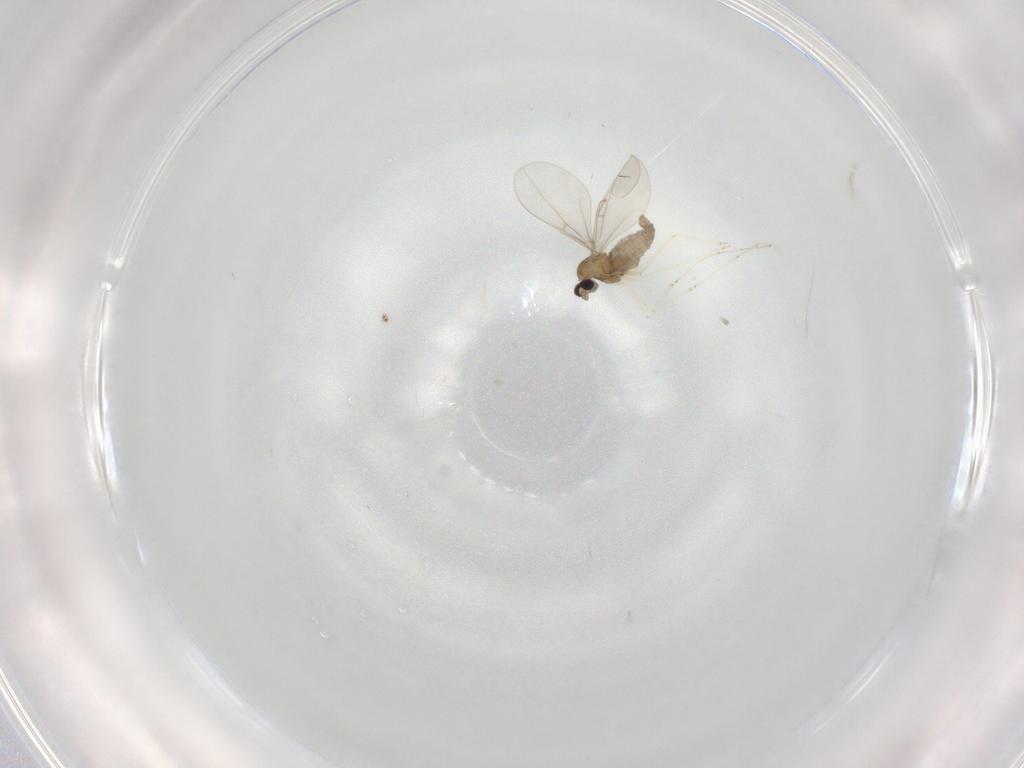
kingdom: Animalia
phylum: Arthropoda
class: Insecta
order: Diptera
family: Cecidomyiidae
